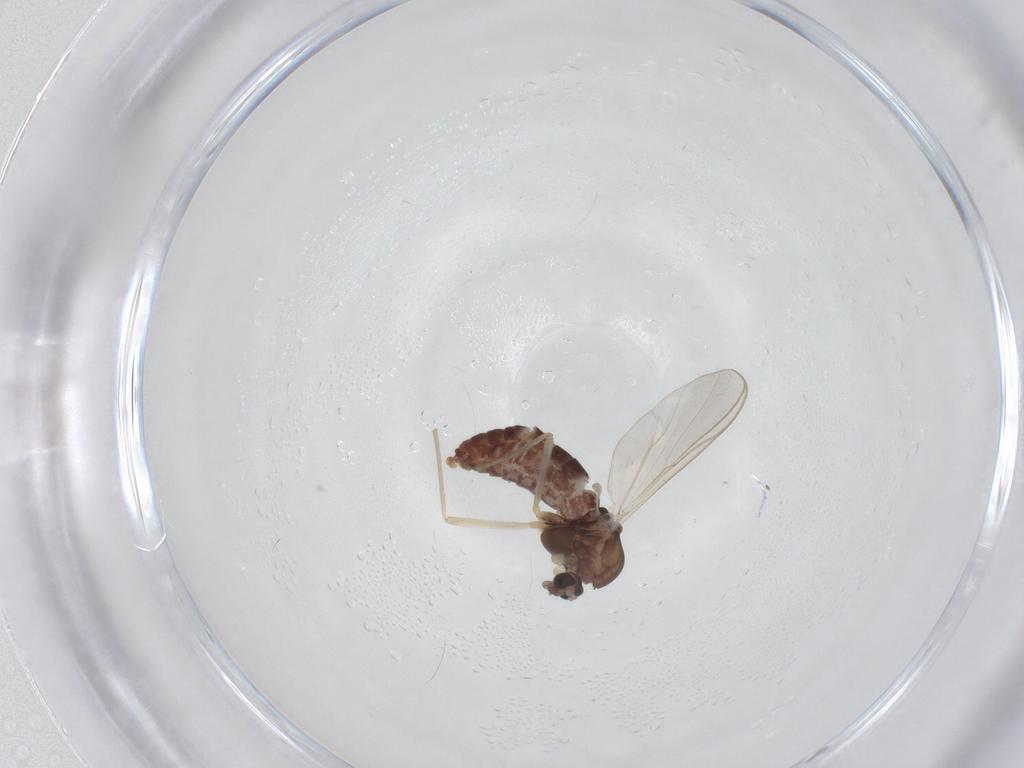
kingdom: Animalia
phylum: Arthropoda
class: Insecta
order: Diptera
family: Chironomidae
